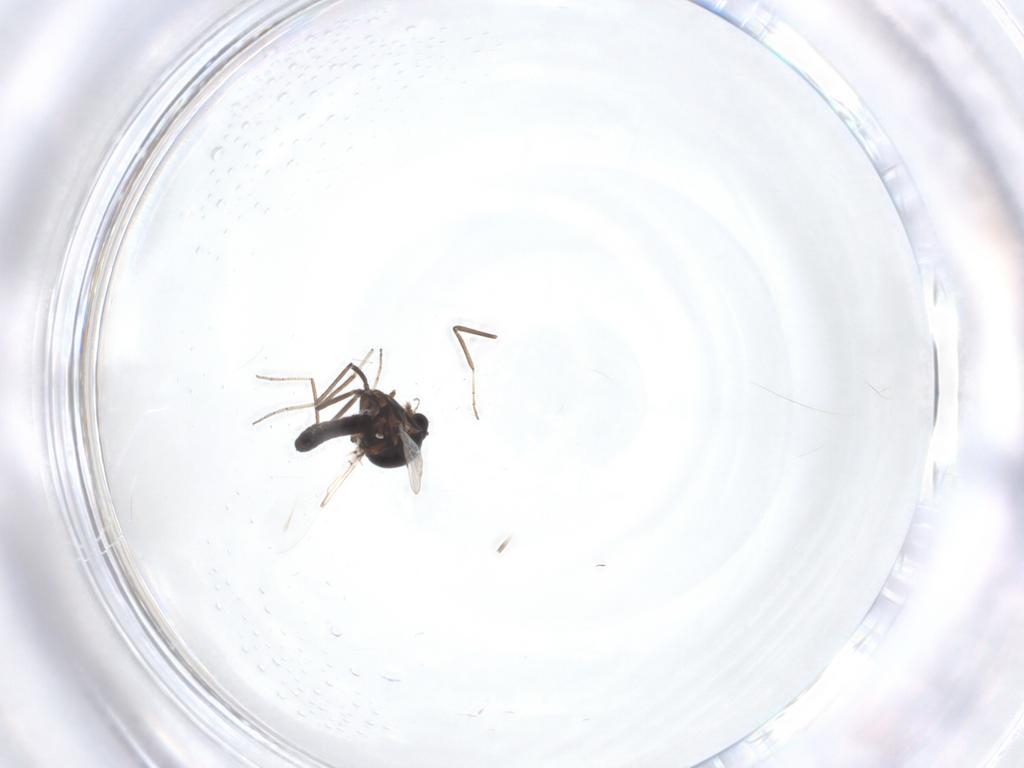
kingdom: Animalia
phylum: Arthropoda
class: Insecta
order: Diptera
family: Ceratopogonidae
